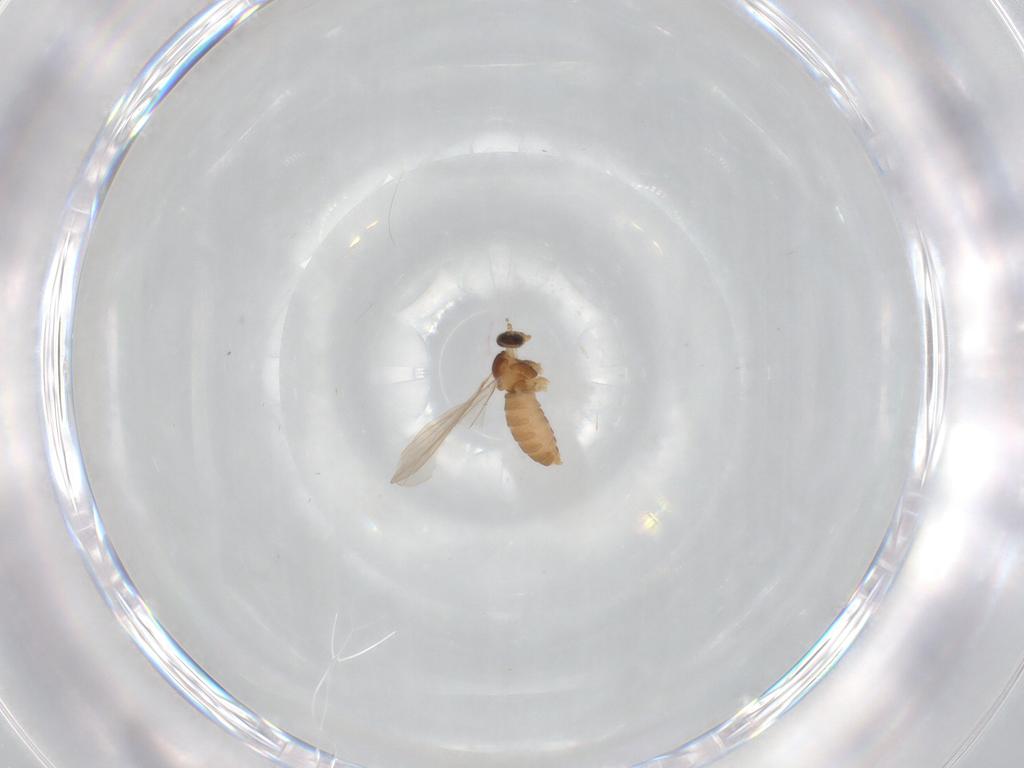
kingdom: Animalia
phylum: Arthropoda
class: Insecta
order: Diptera
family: Cecidomyiidae
